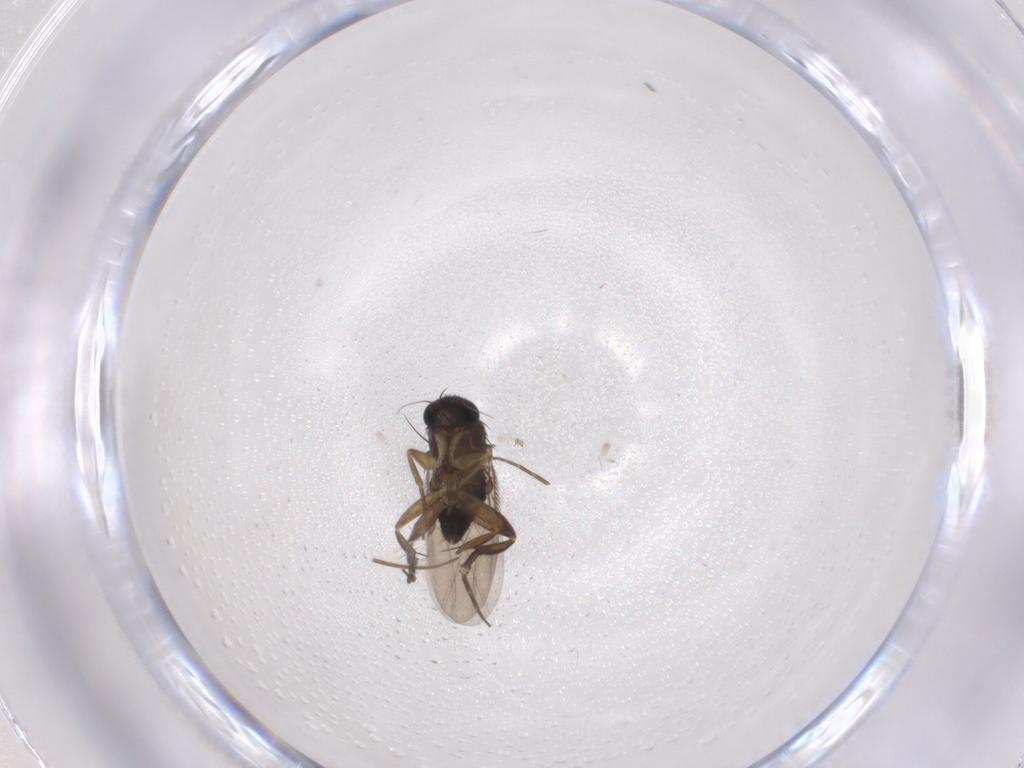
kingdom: Animalia
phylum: Arthropoda
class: Insecta
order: Diptera
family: Phoridae
